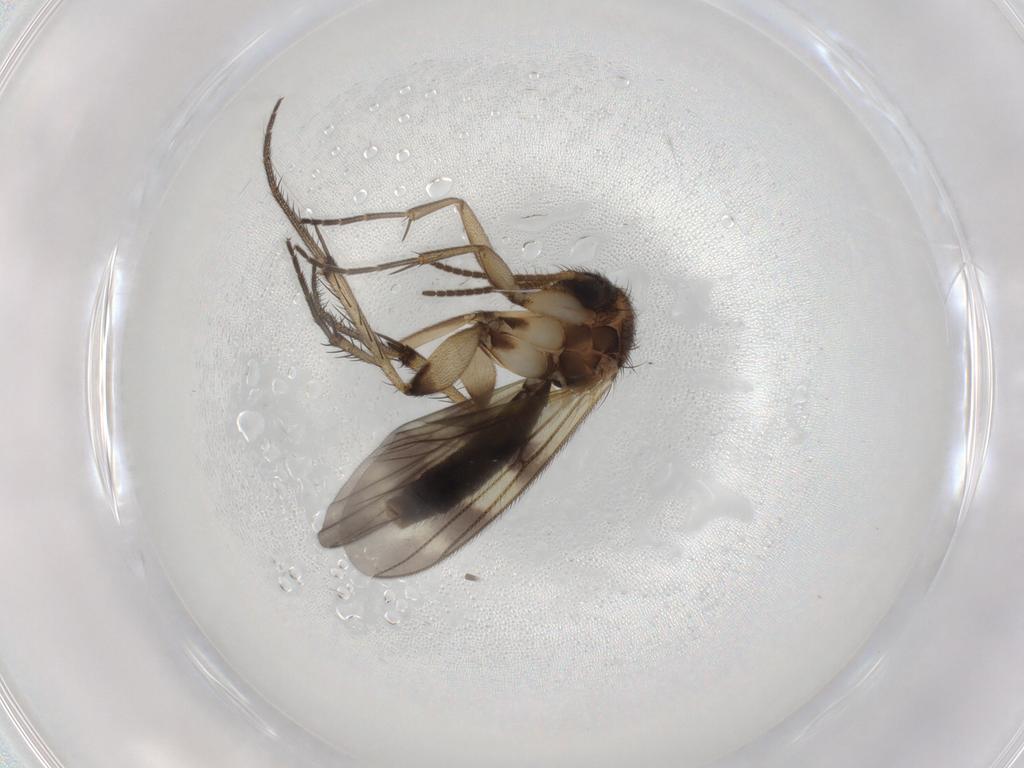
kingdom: Animalia
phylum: Arthropoda
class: Insecta
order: Diptera
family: Mycetophilidae
